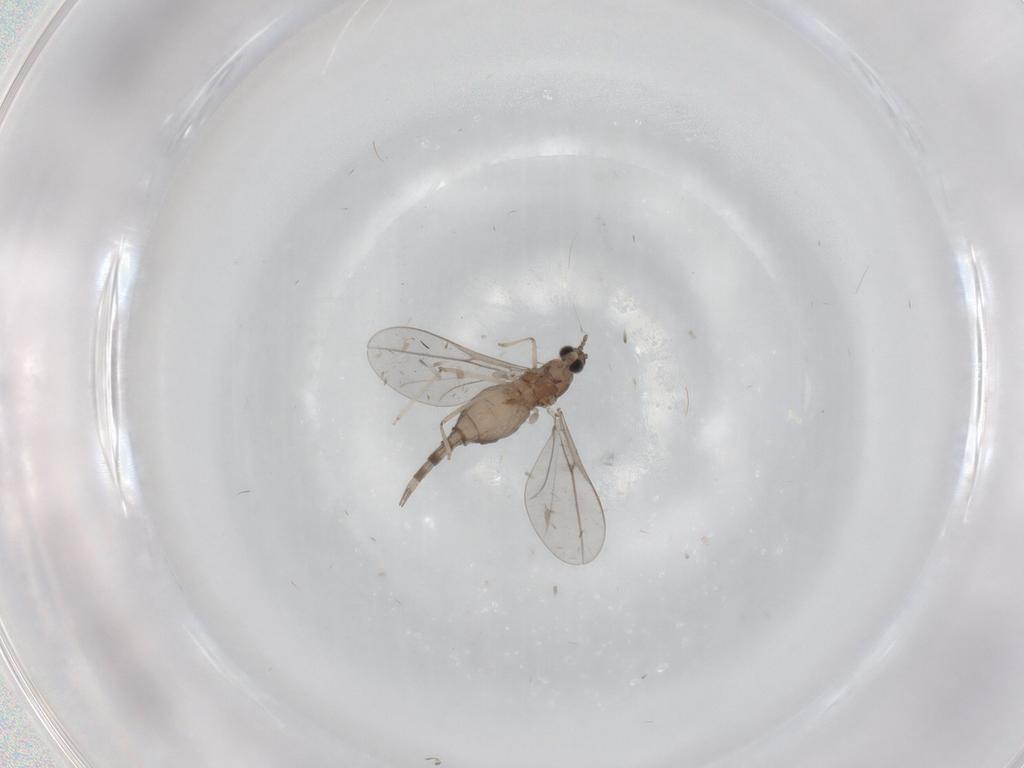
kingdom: Animalia
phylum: Arthropoda
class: Insecta
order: Diptera
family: Cecidomyiidae
